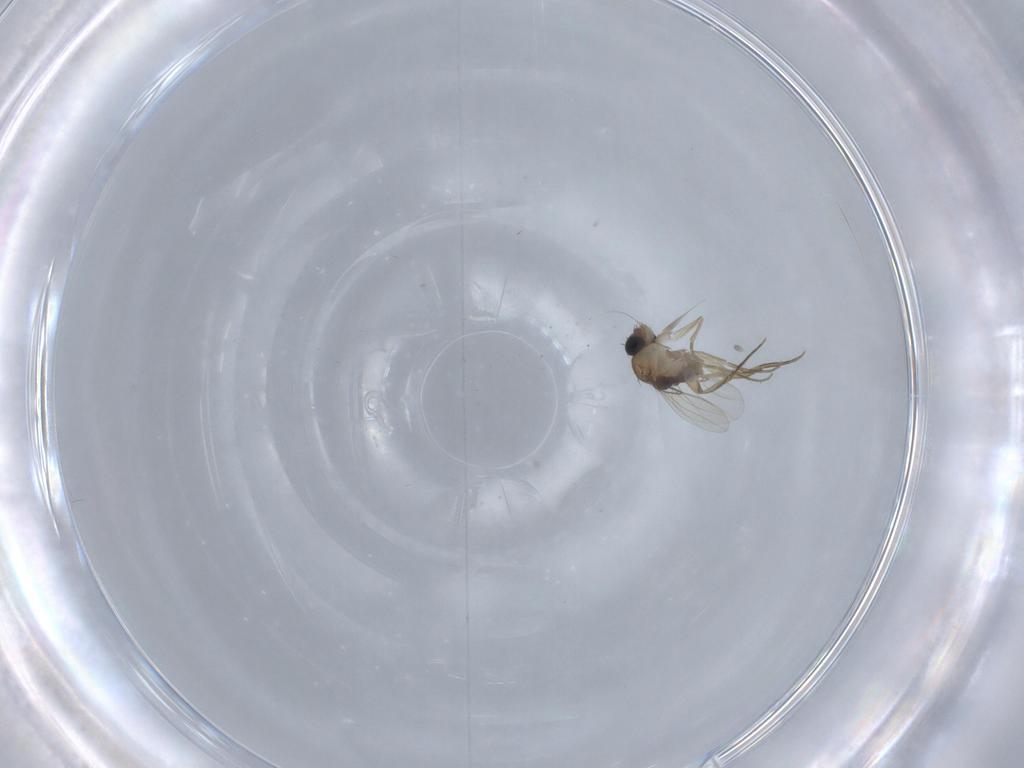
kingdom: Animalia
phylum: Arthropoda
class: Insecta
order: Diptera
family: Phoridae
